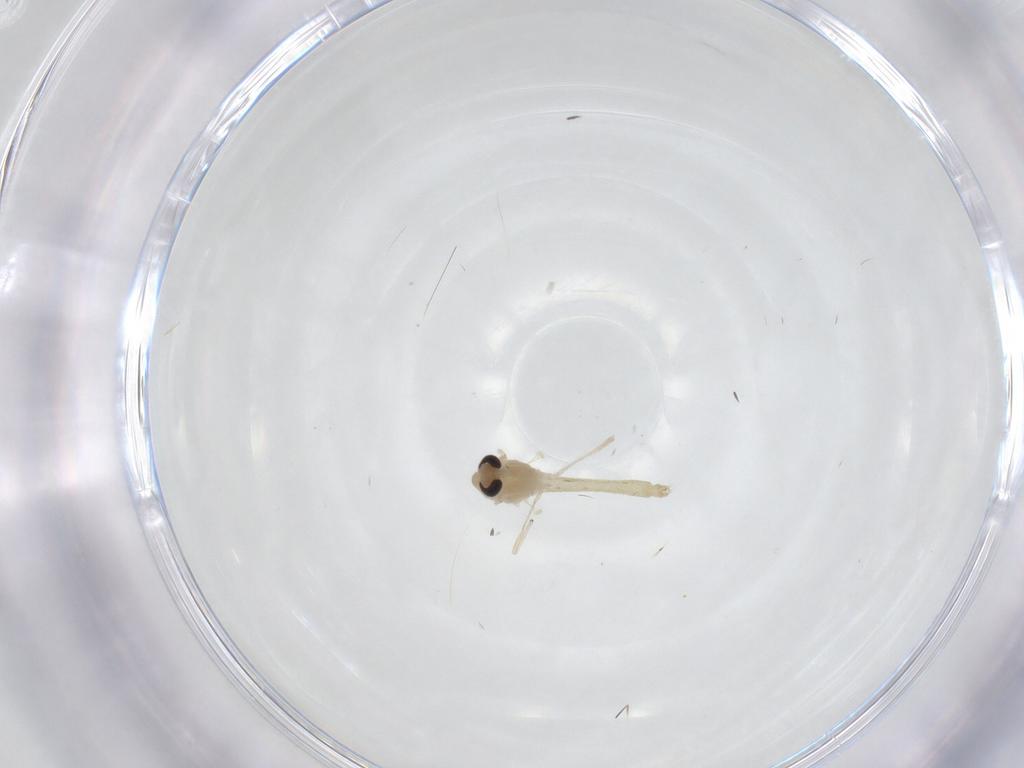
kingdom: Animalia
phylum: Arthropoda
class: Insecta
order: Diptera
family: Chironomidae
